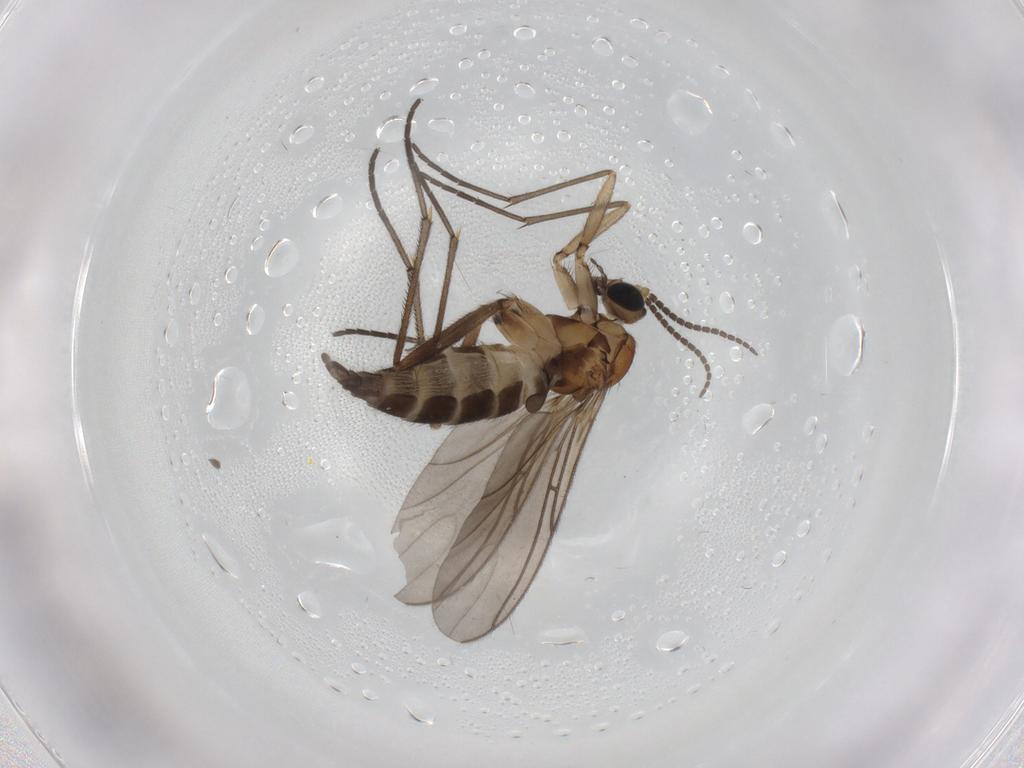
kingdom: Animalia
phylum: Arthropoda
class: Insecta
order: Diptera
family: Sciaridae
